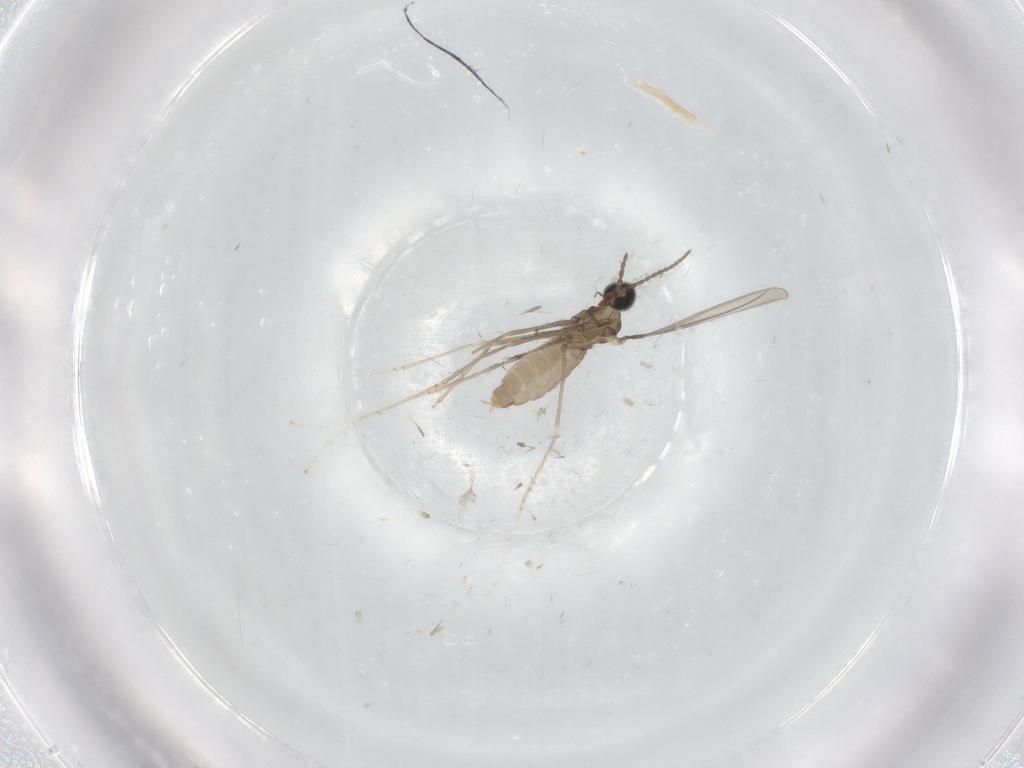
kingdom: Animalia
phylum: Arthropoda
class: Insecta
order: Diptera
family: Cecidomyiidae
